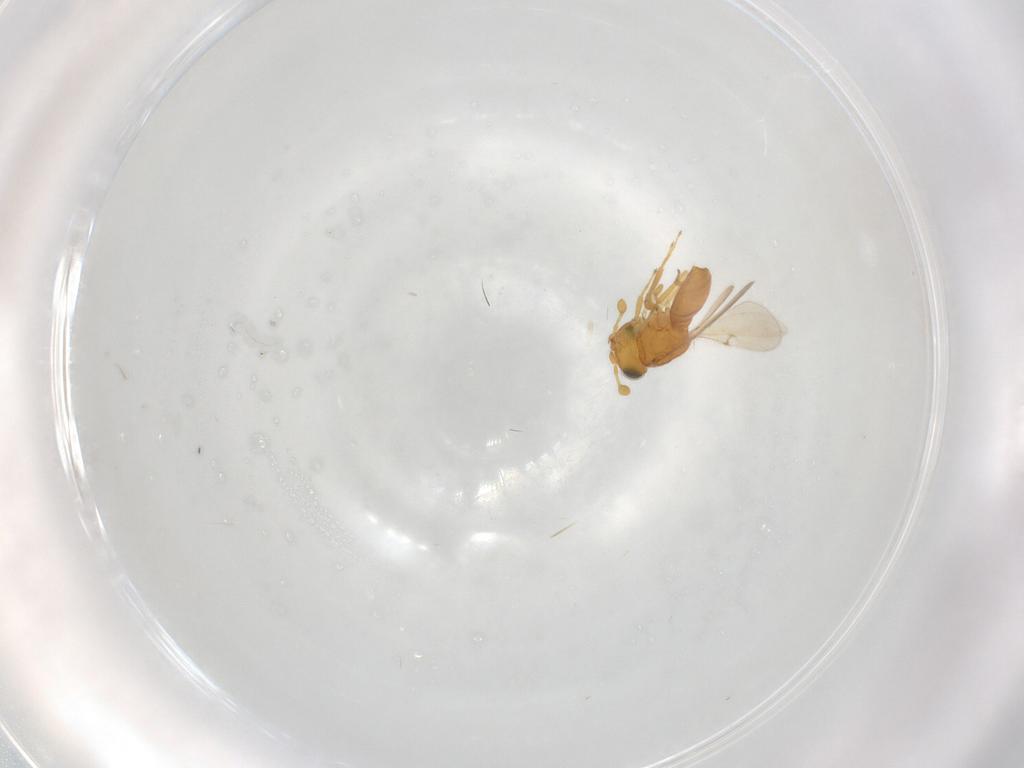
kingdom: Animalia
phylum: Arthropoda
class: Insecta
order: Hymenoptera
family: Scelionidae
